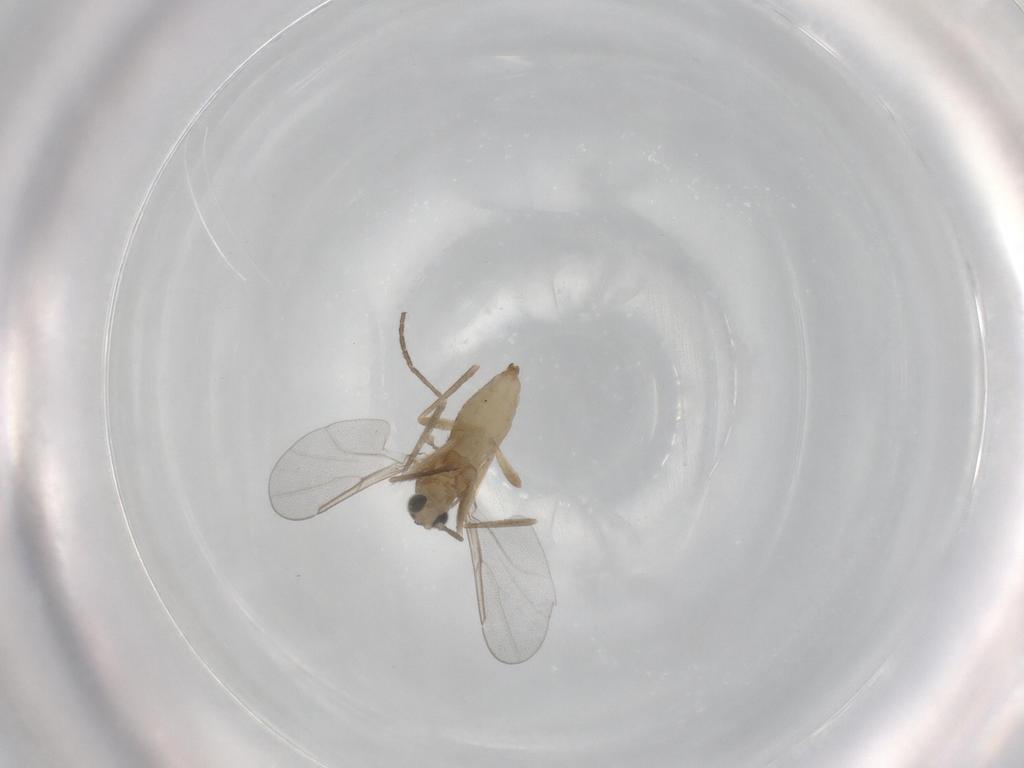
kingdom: Animalia
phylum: Arthropoda
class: Insecta
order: Diptera
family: Cecidomyiidae
